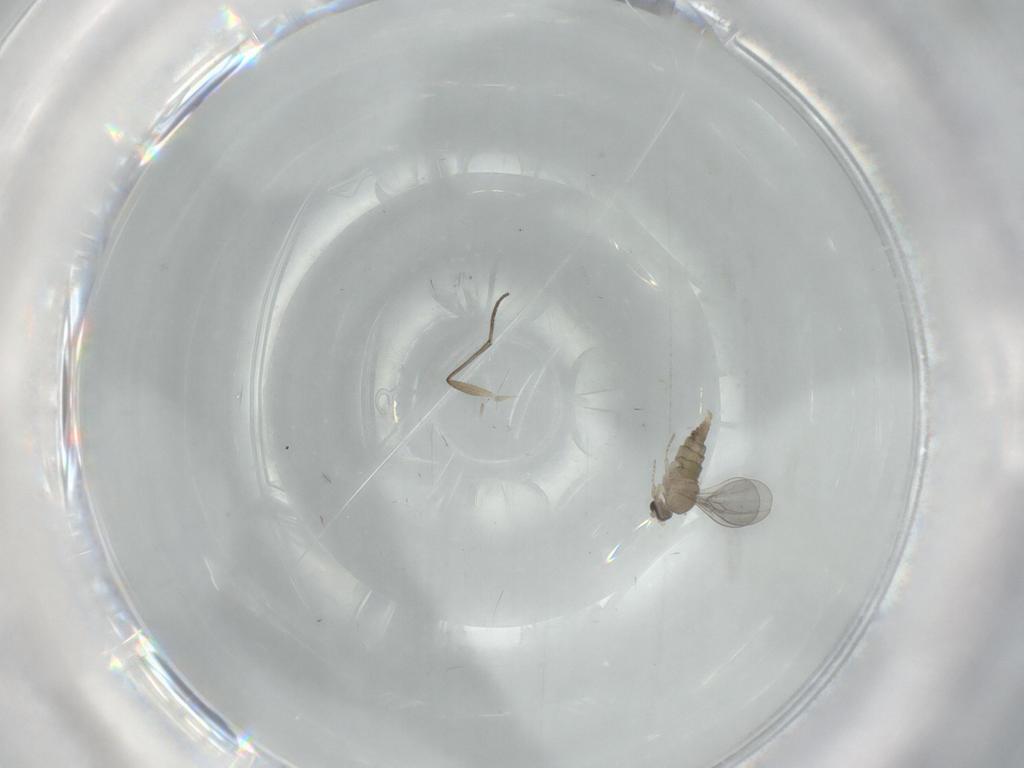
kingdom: Animalia
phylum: Arthropoda
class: Insecta
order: Diptera
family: Cecidomyiidae
